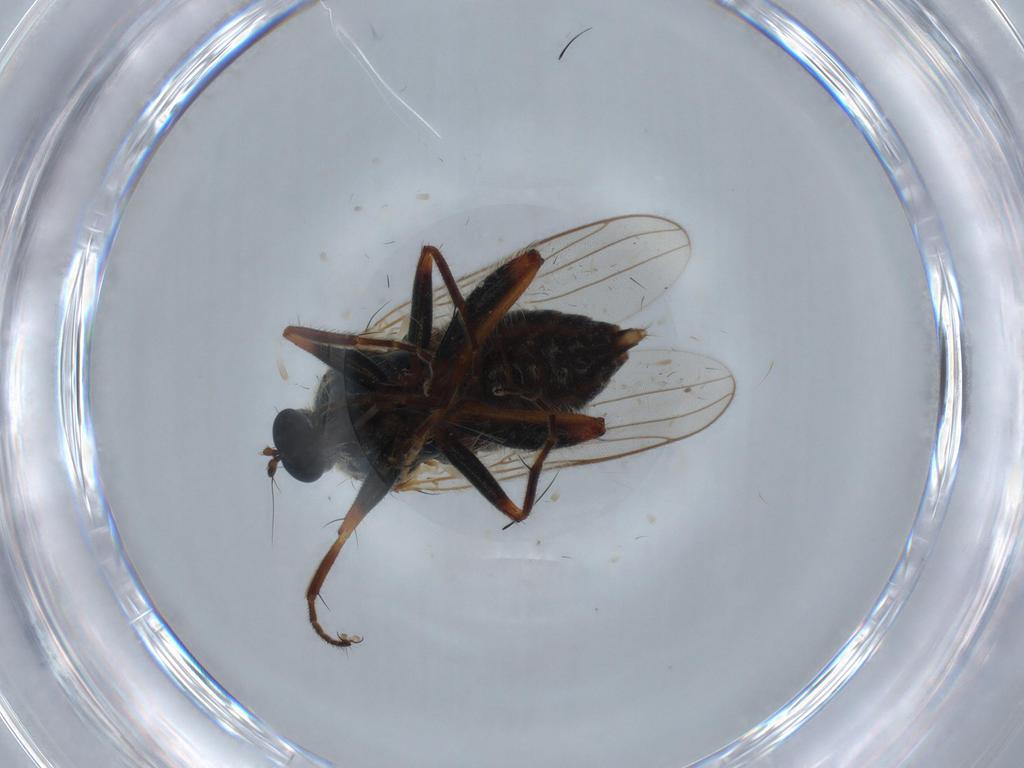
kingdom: Animalia
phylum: Arthropoda
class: Insecta
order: Diptera
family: Hybotidae
